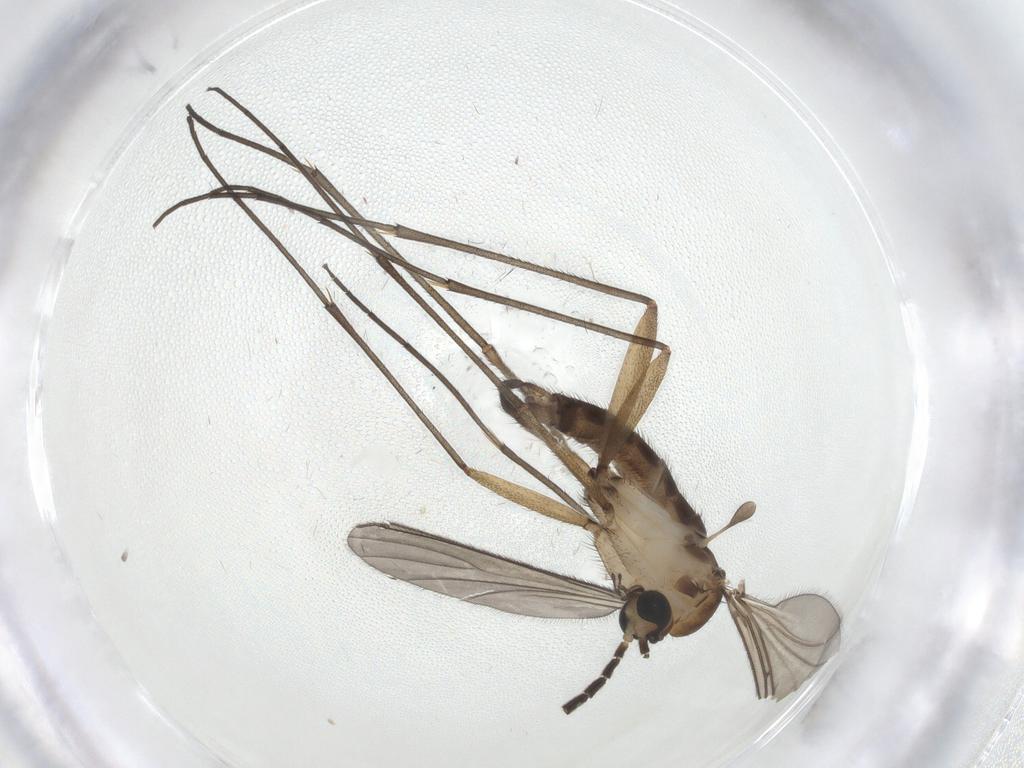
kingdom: Animalia
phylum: Arthropoda
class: Insecta
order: Diptera
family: Sciaridae
